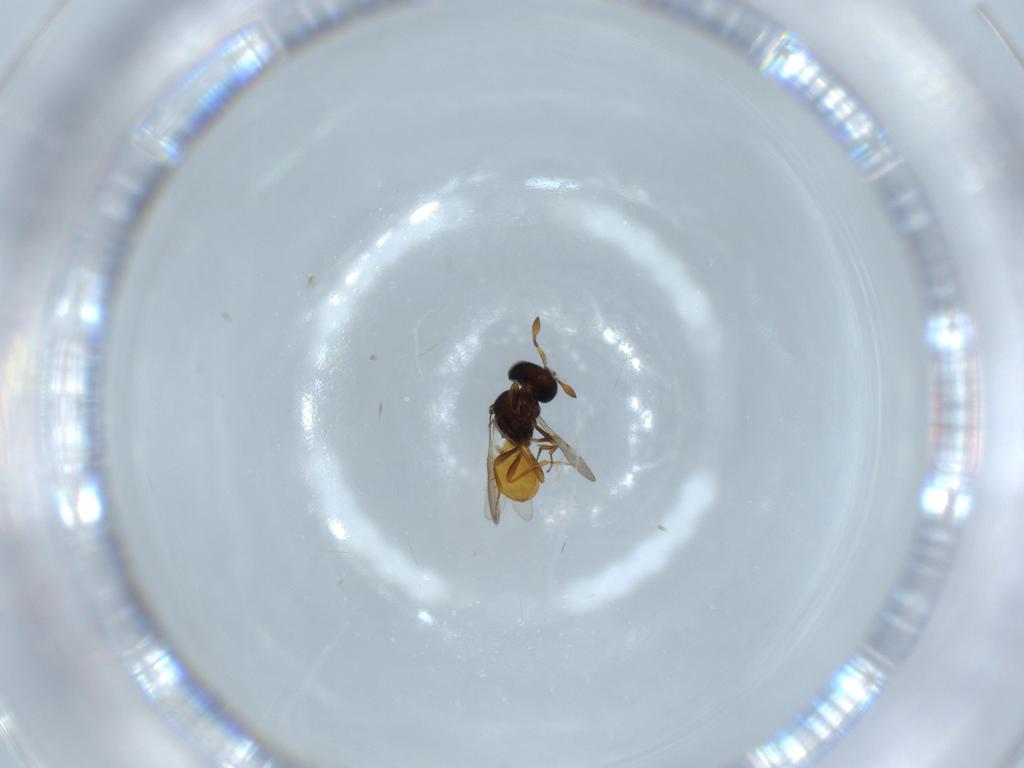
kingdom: Animalia
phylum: Arthropoda
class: Insecta
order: Hymenoptera
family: Scelionidae
